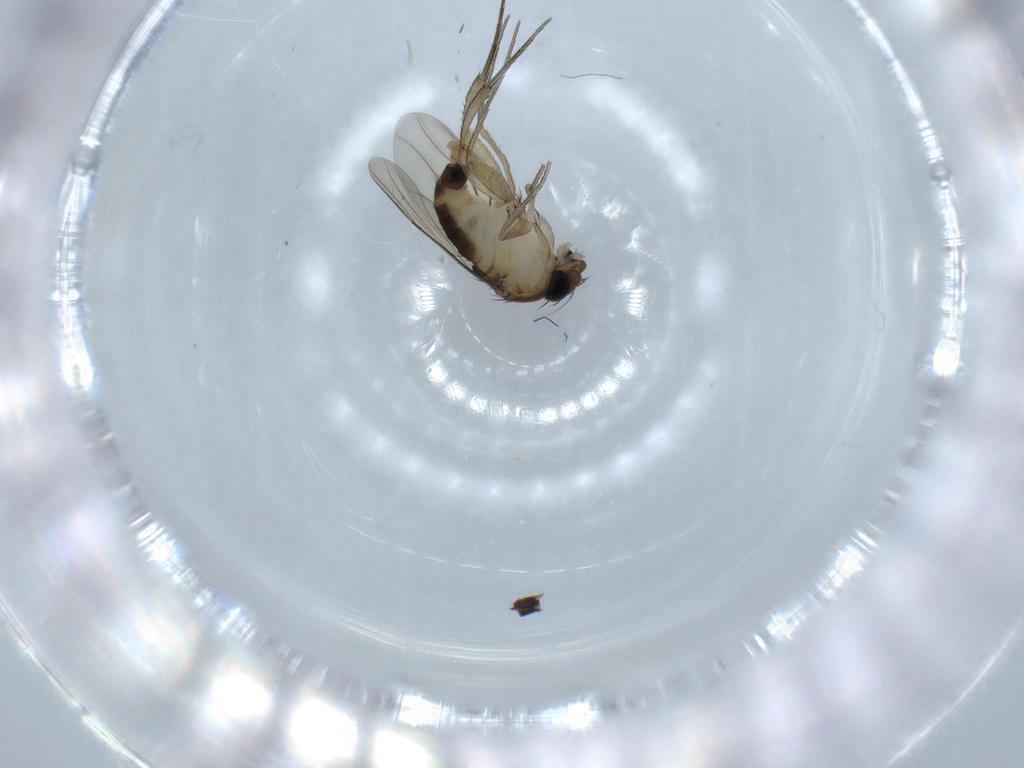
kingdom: Animalia
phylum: Arthropoda
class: Insecta
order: Diptera
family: Phoridae
